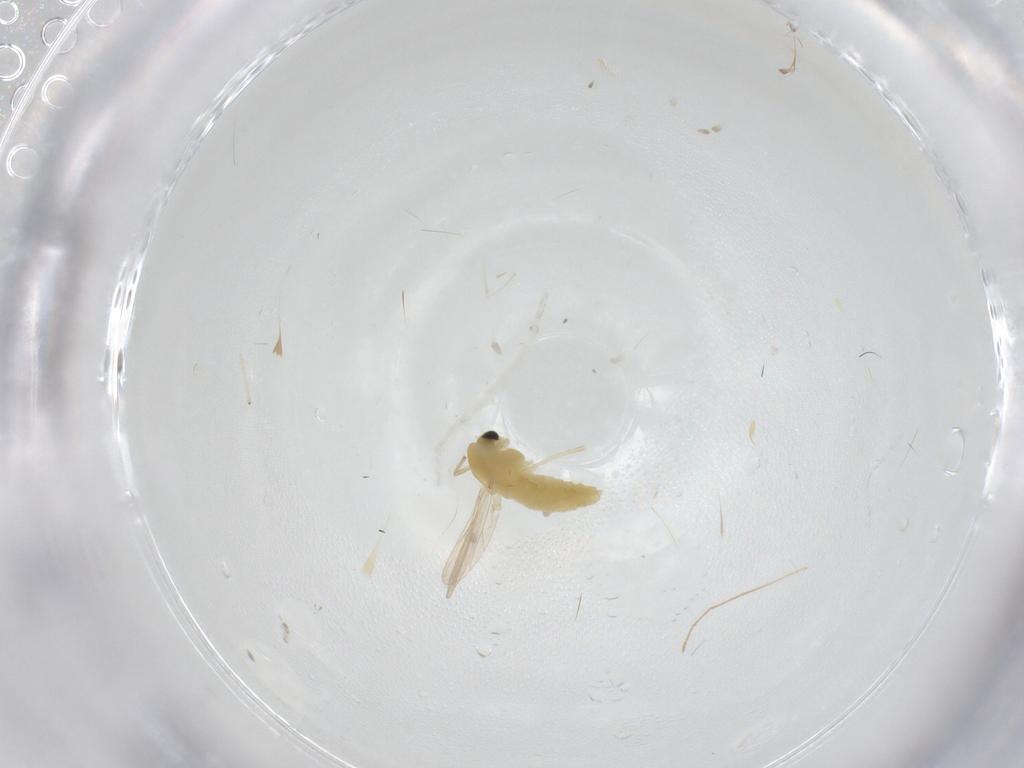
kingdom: Animalia
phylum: Arthropoda
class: Insecta
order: Diptera
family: Chironomidae
